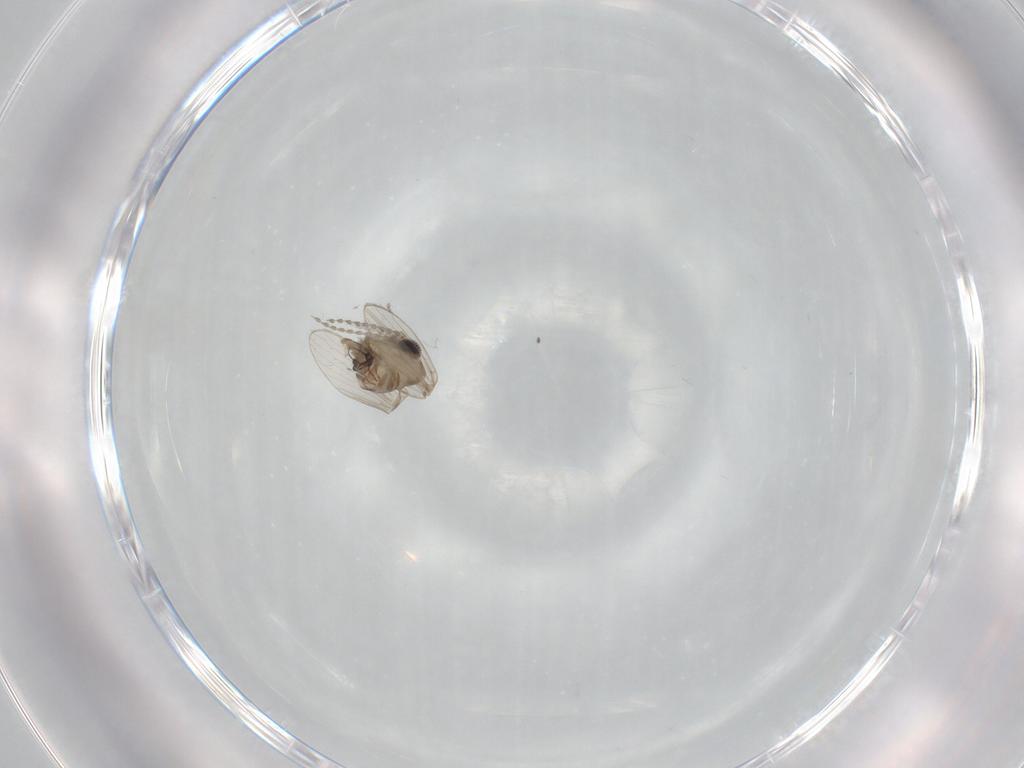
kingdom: Animalia
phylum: Arthropoda
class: Insecta
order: Diptera
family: Psychodidae
